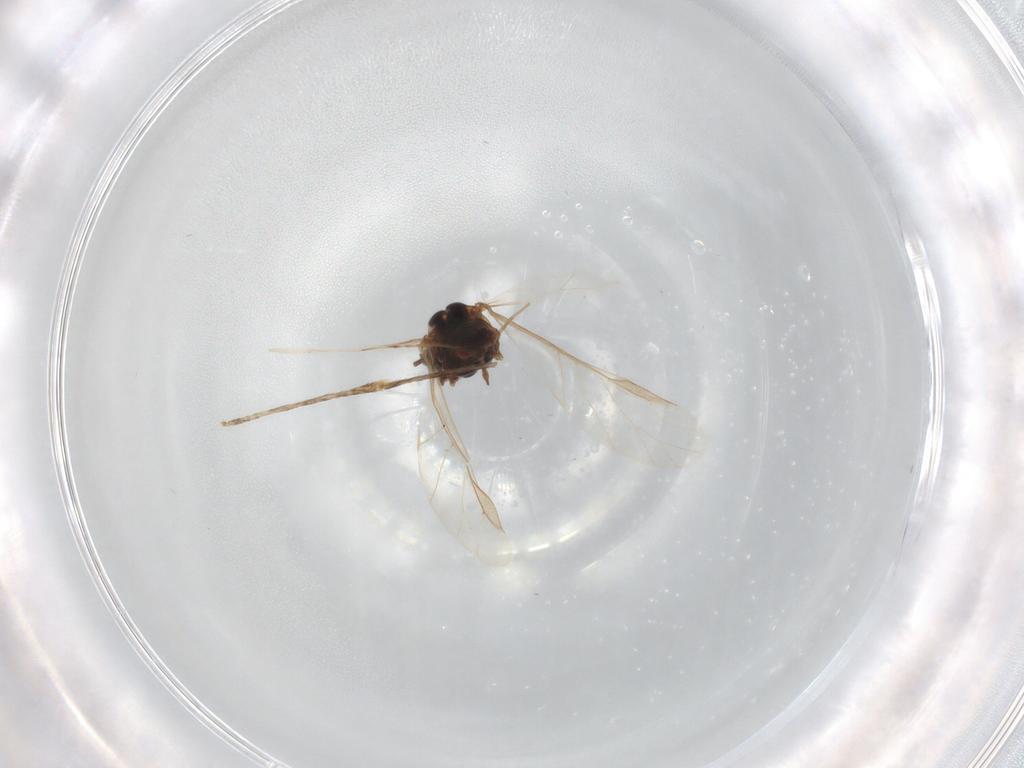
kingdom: Animalia
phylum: Arthropoda
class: Insecta
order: Hemiptera
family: Aphididae
